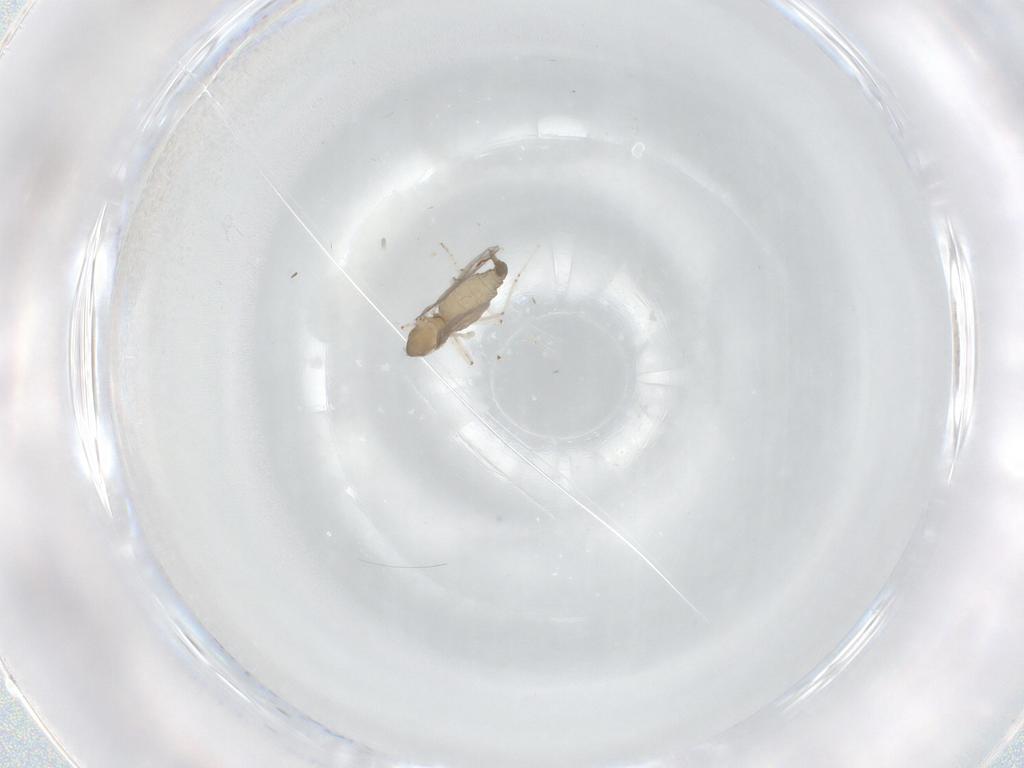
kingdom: Animalia
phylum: Arthropoda
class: Insecta
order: Diptera
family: Cecidomyiidae
